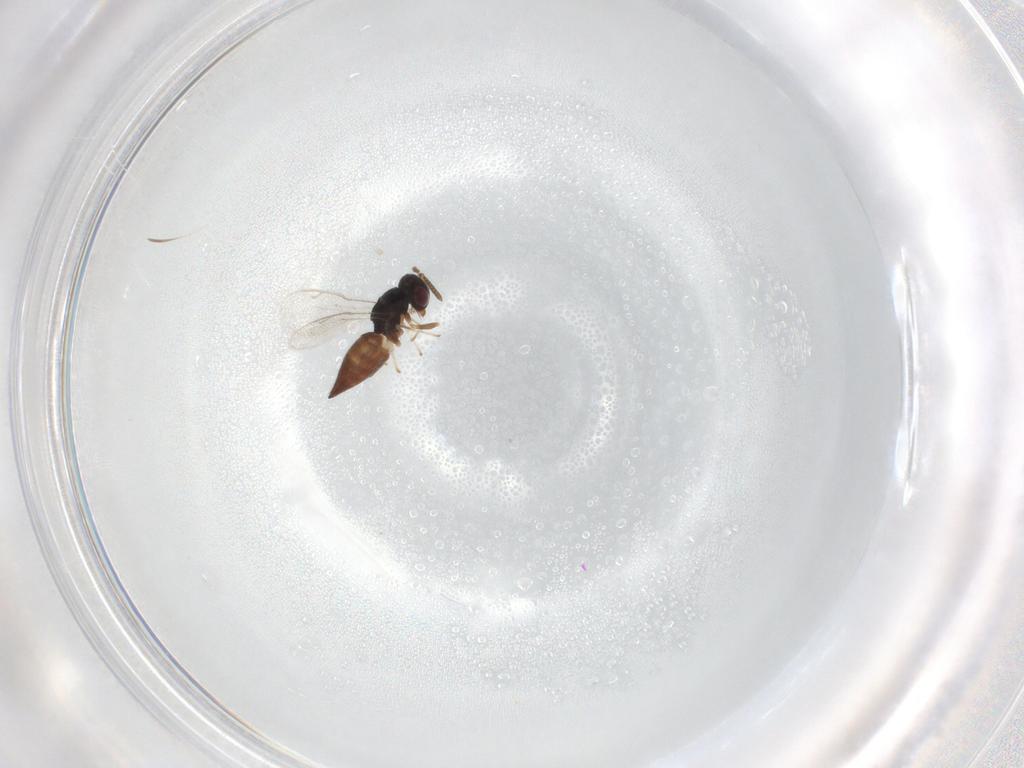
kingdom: Animalia
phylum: Arthropoda
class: Insecta
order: Hymenoptera
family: Pteromalidae
